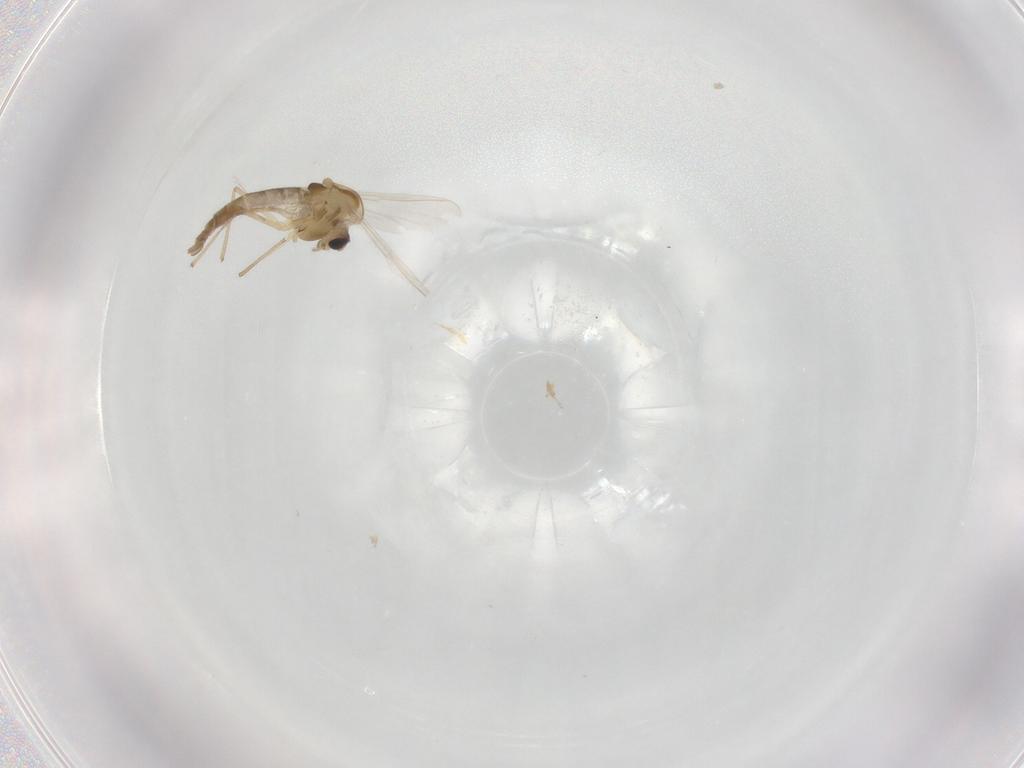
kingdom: Animalia
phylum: Arthropoda
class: Insecta
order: Diptera
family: Chironomidae
